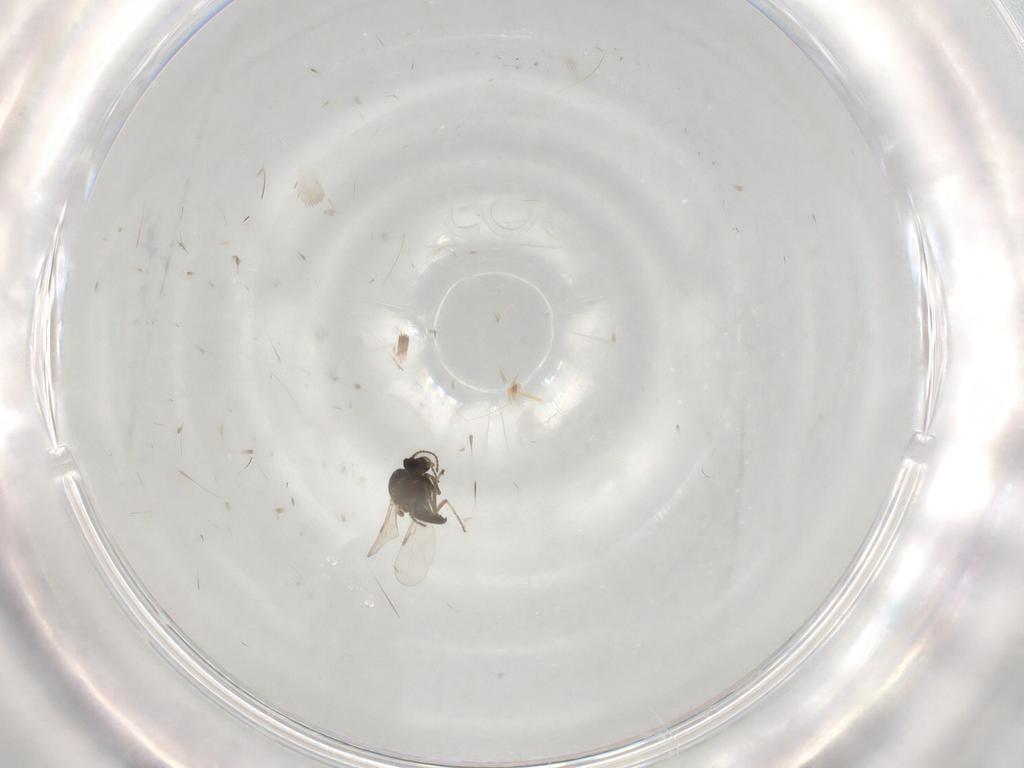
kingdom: Animalia
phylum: Arthropoda
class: Insecta
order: Diptera
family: Ceratopogonidae
